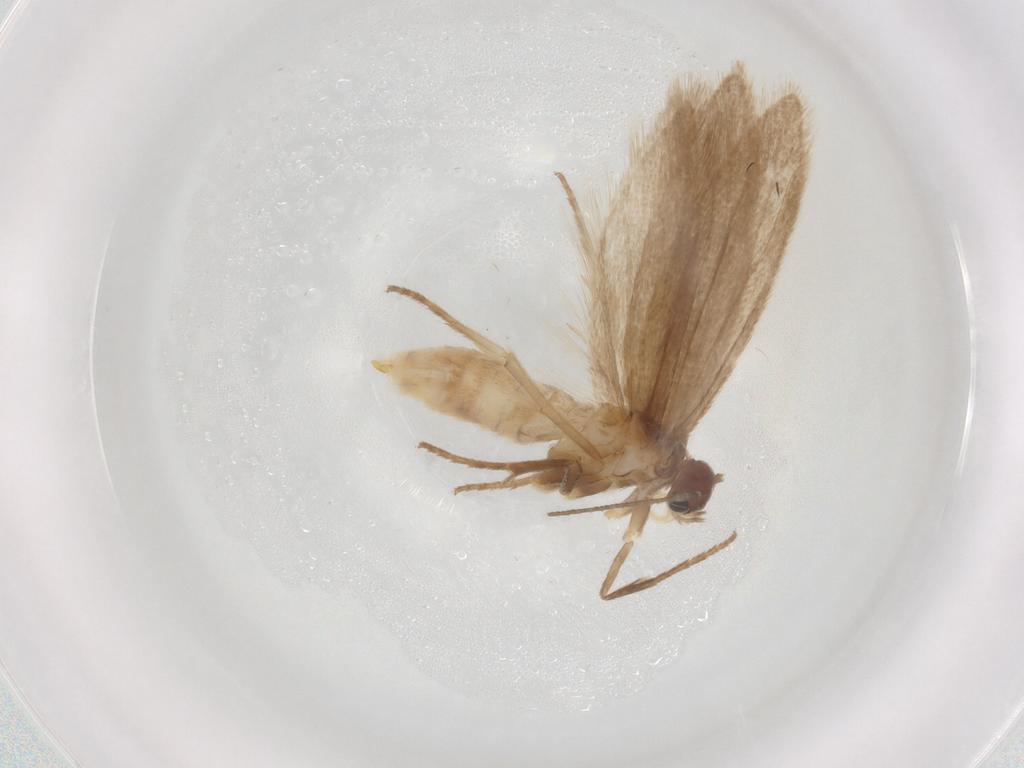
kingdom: Animalia
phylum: Arthropoda
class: Insecta
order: Lepidoptera
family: Limacodidae
